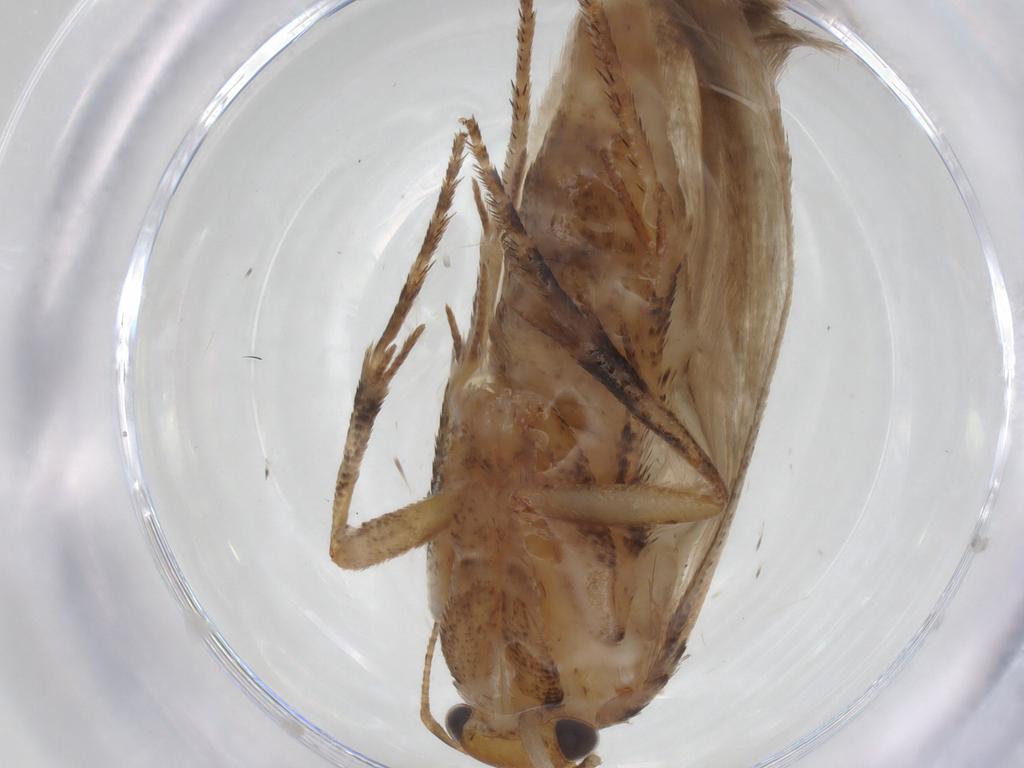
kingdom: Animalia
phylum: Arthropoda
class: Insecta
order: Lepidoptera
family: Gelechiidae
